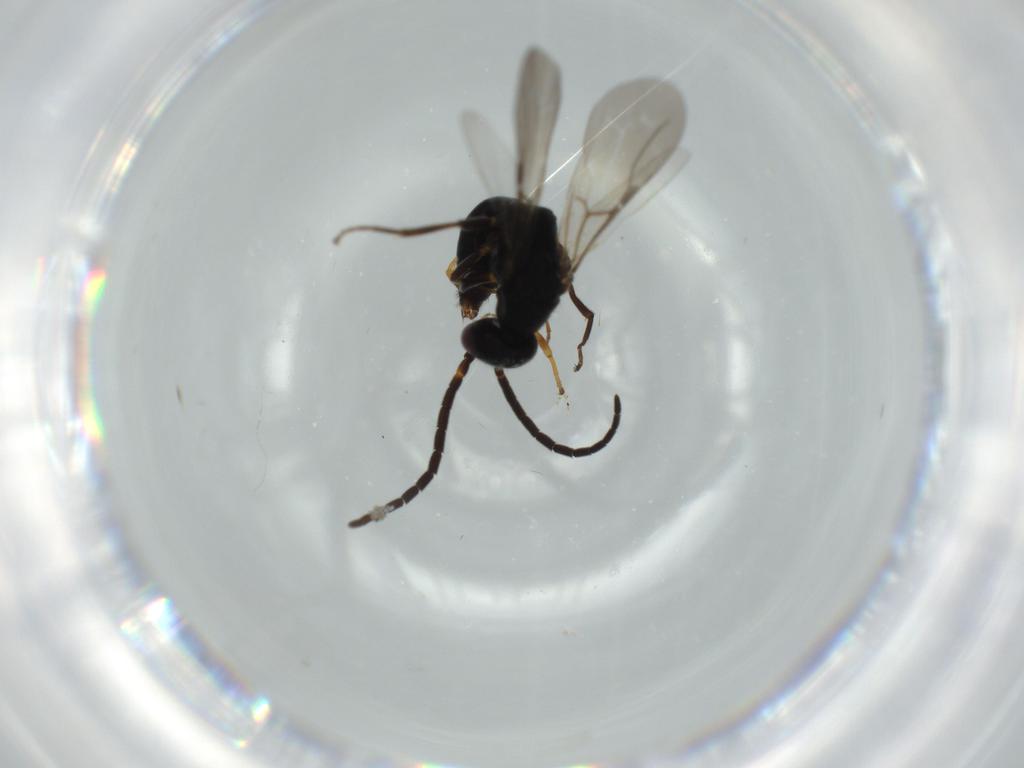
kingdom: Animalia
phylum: Arthropoda
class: Insecta
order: Hymenoptera
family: Bethylidae
